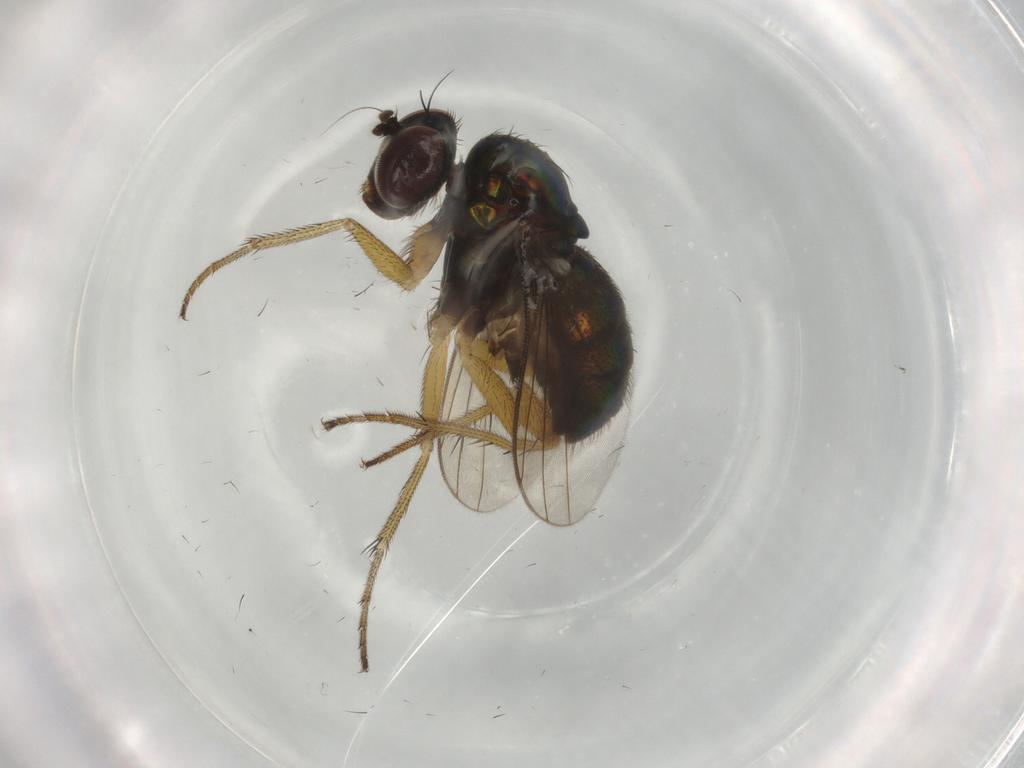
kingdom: Animalia
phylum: Arthropoda
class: Insecta
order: Diptera
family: Dolichopodidae
